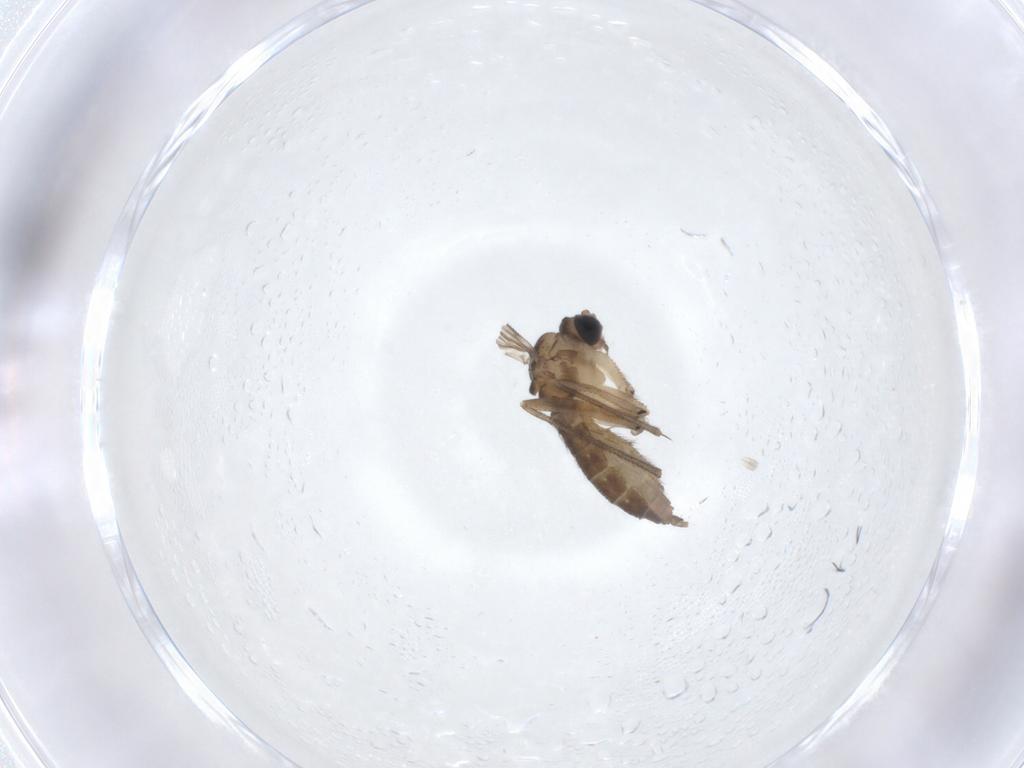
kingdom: Animalia
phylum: Arthropoda
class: Insecta
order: Diptera
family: Sciaridae
